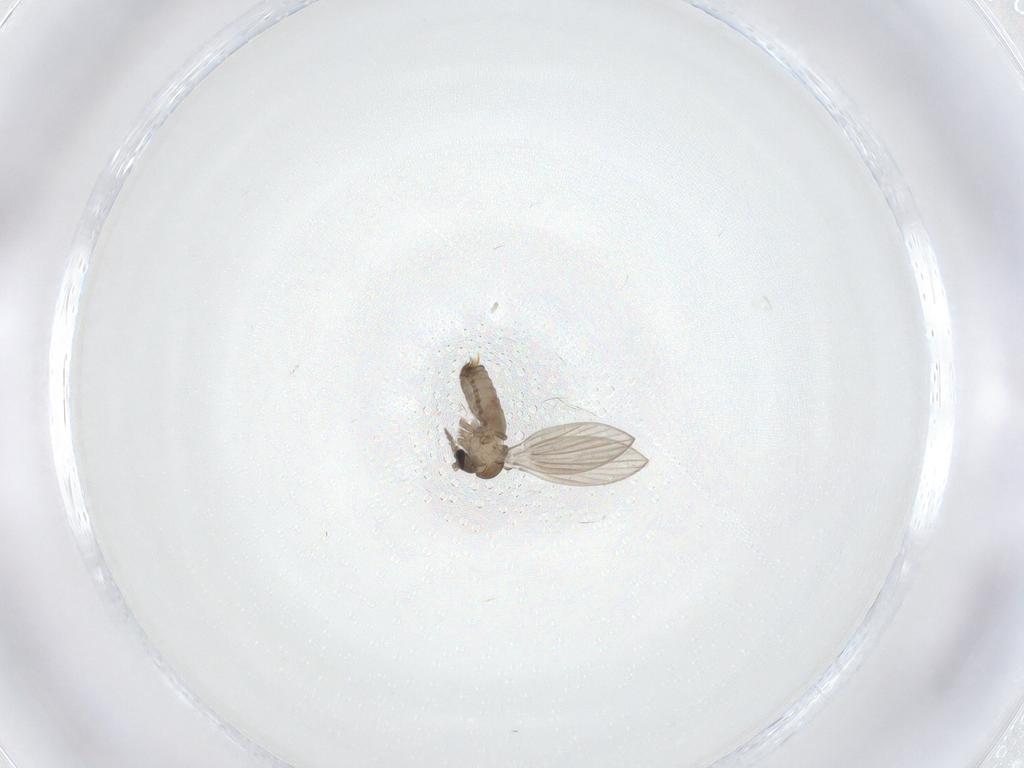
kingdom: Animalia
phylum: Arthropoda
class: Insecta
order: Diptera
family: Psychodidae
